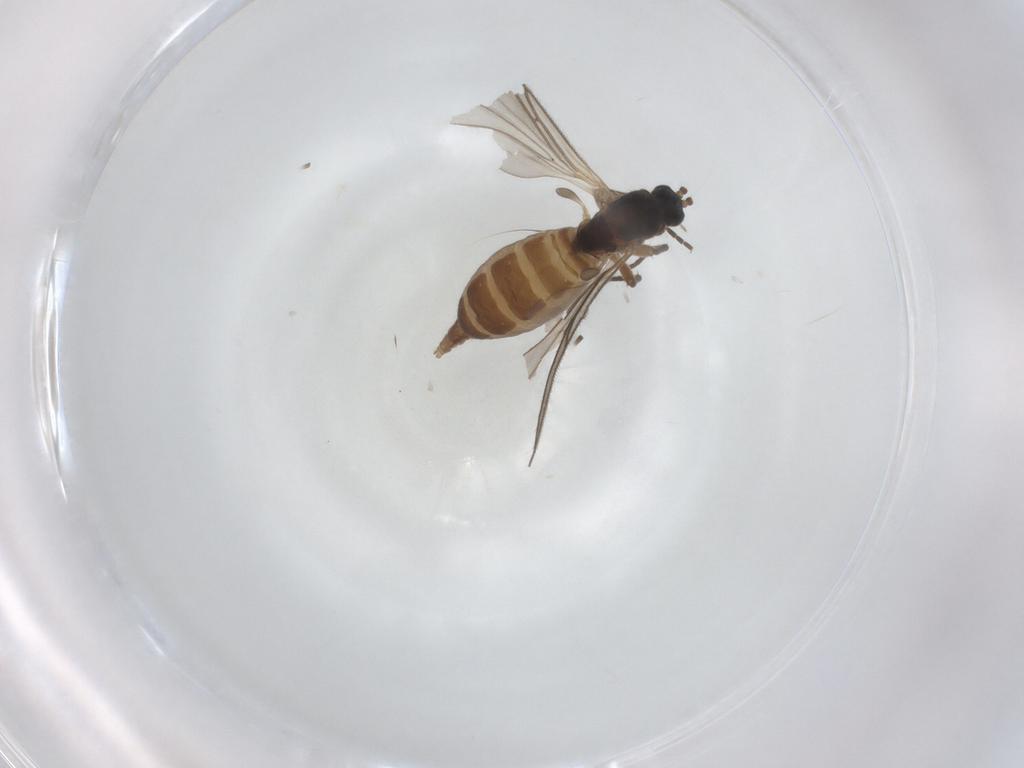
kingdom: Animalia
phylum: Arthropoda
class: Insecta
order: Diptera
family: Sciaridae
